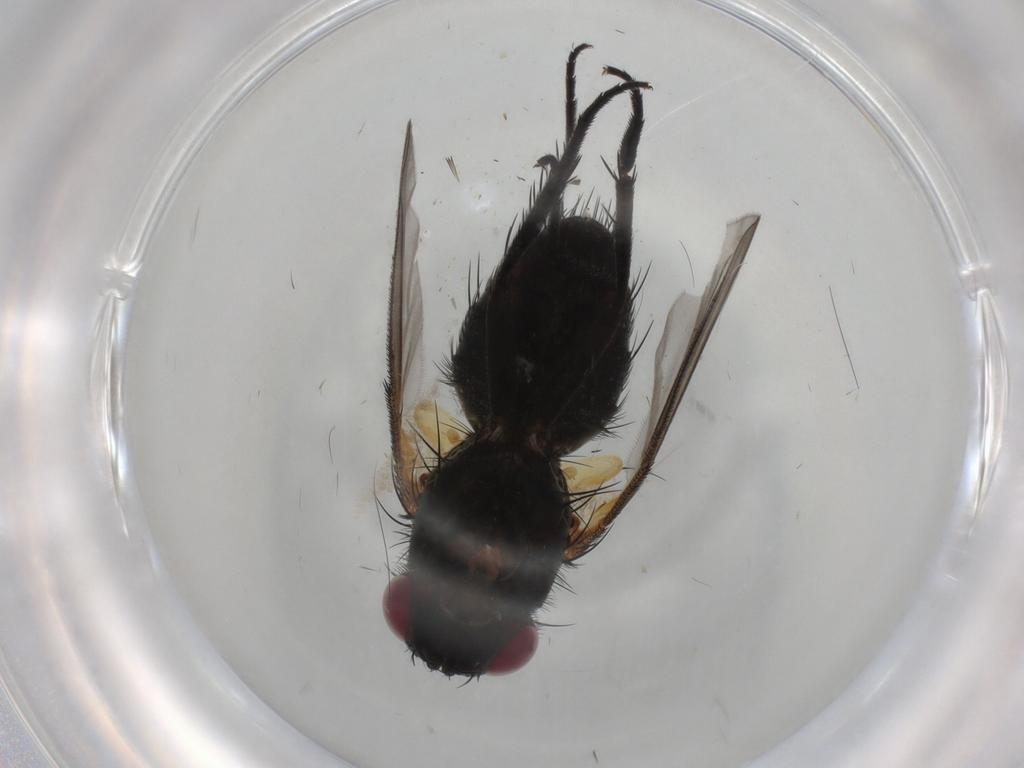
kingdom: Animalia
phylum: Arthropoda
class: Insecta
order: Diptera
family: Tachinidae
